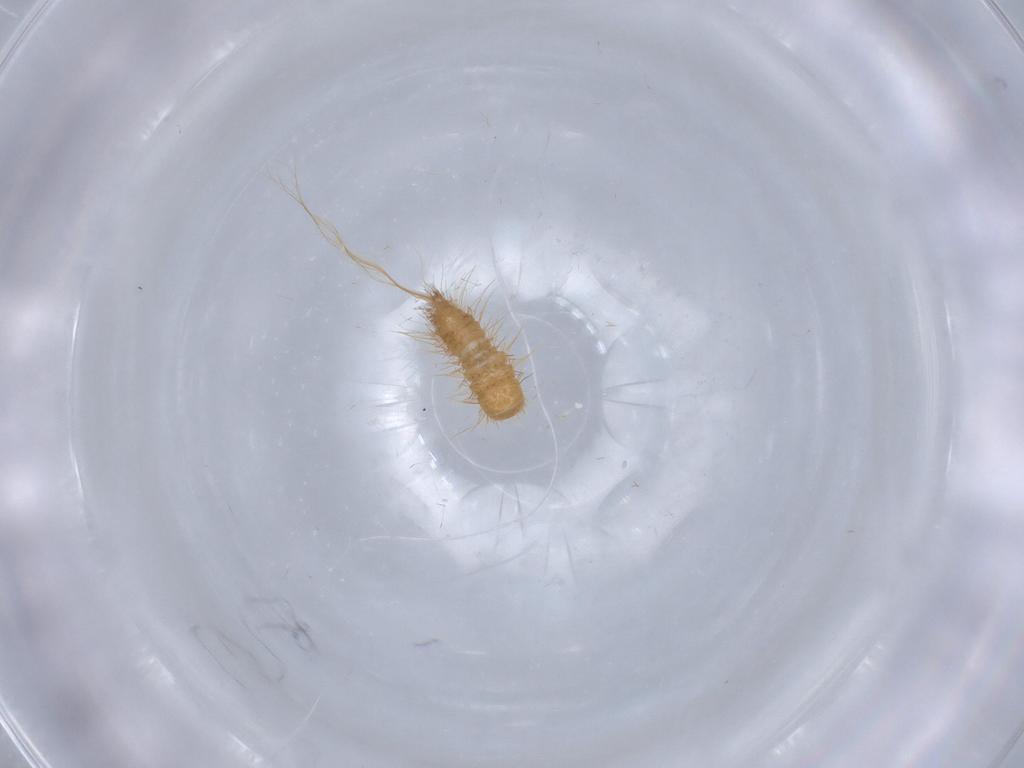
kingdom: Animalia
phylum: Arthropoda
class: Insecta
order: Coleoptera
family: Dermestidae
